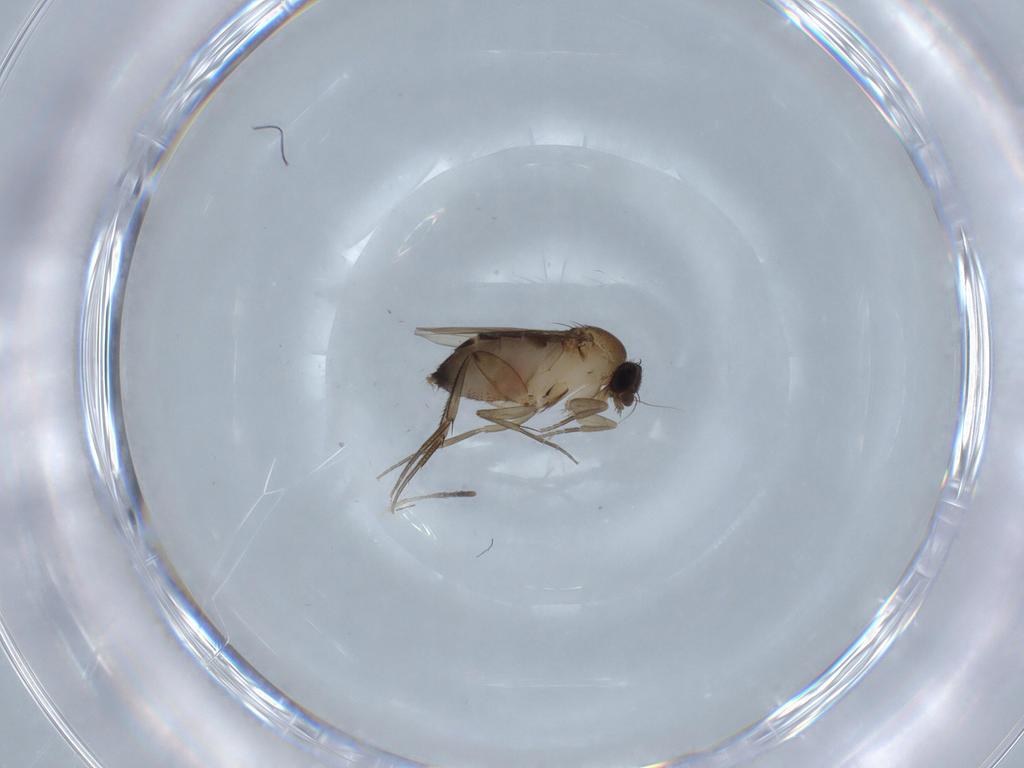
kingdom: Animalia
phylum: Arthropoda
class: Insecta
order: Diptera
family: Phoridae
